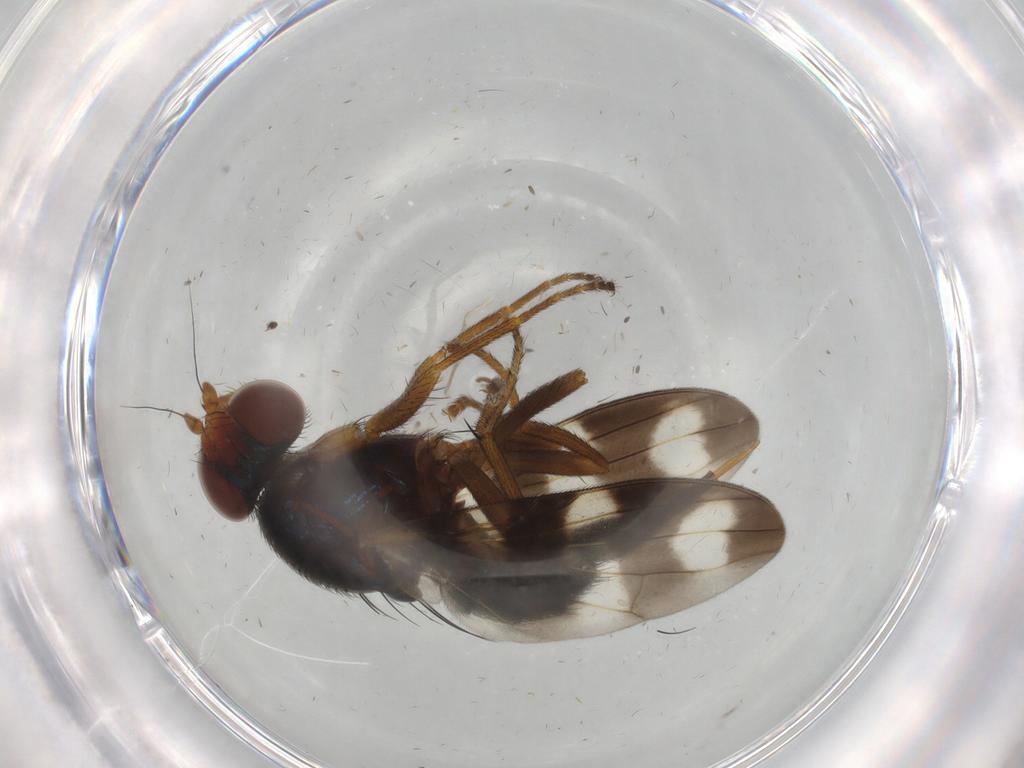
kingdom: Animalia
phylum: Arthropoda
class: Insecta
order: Diptera
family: Ceratopogonidae
